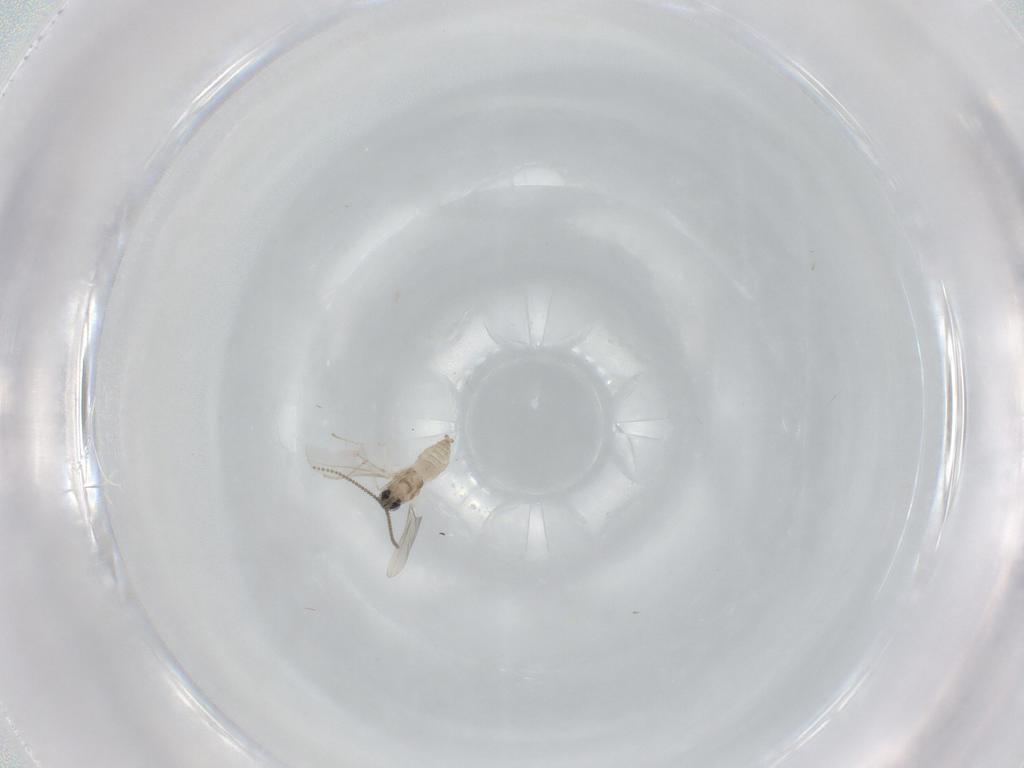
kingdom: Animalia
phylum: Arthropoda
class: Insecta
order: Diptera
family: Cecidomyiidae
